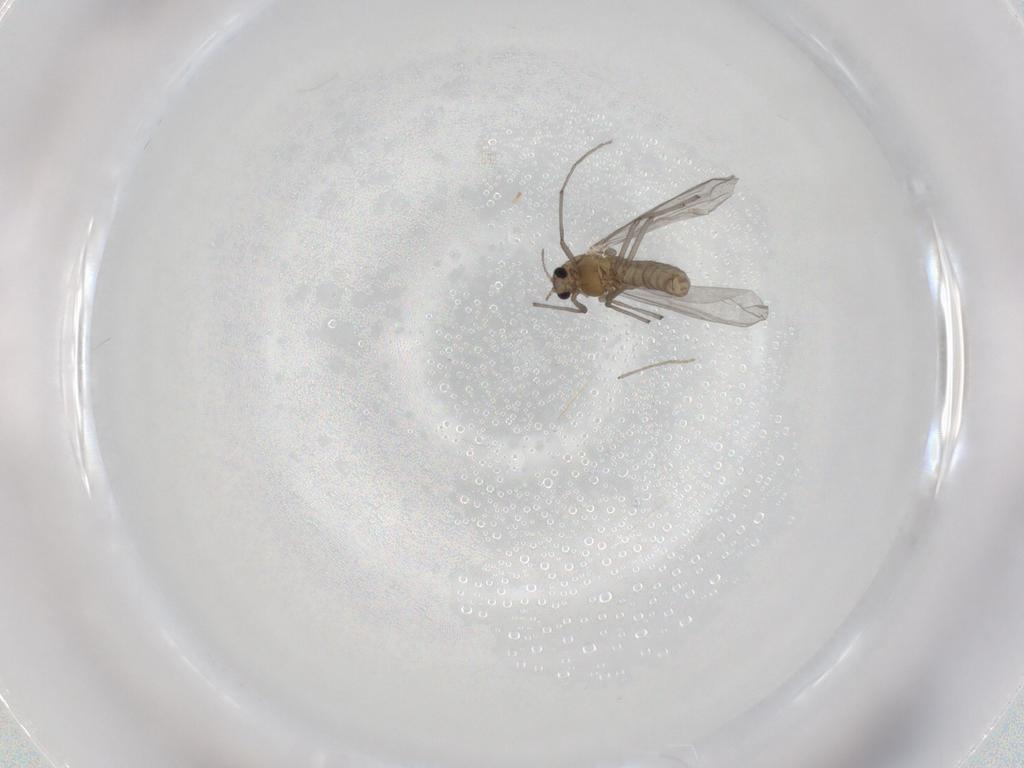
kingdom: Animalia
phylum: Arthropoda
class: Insecta
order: Diptera
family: Chironomidae
